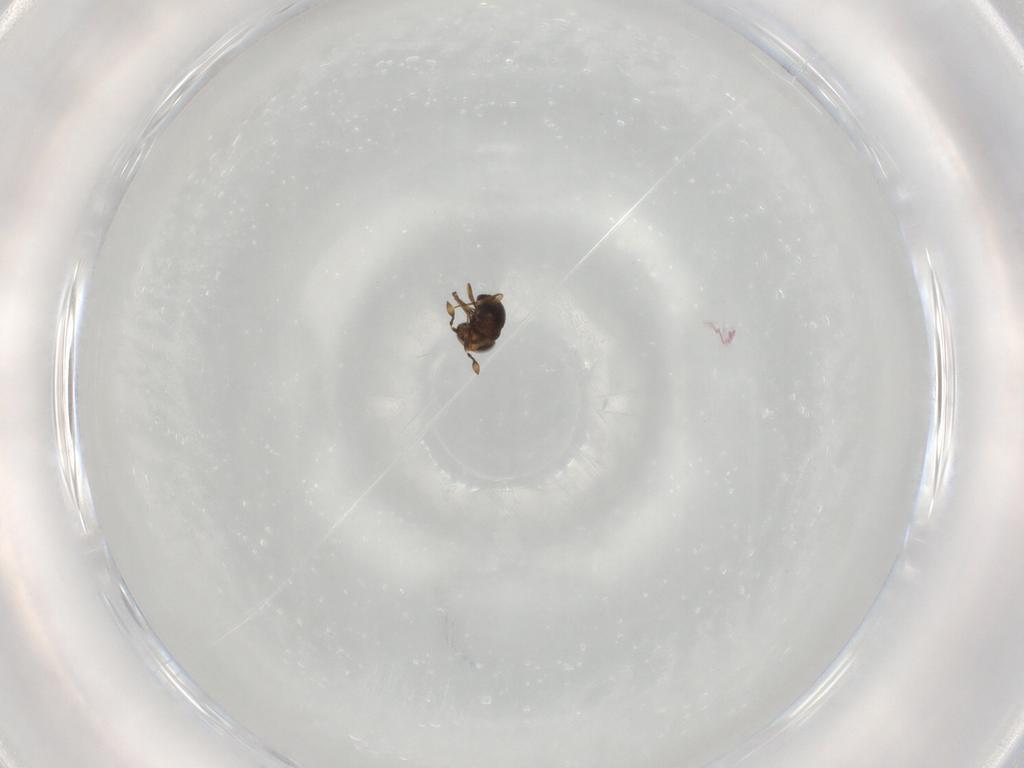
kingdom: Animalia
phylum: Arthropoda
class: Insecta
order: Hymenoptera
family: Scelionidae
